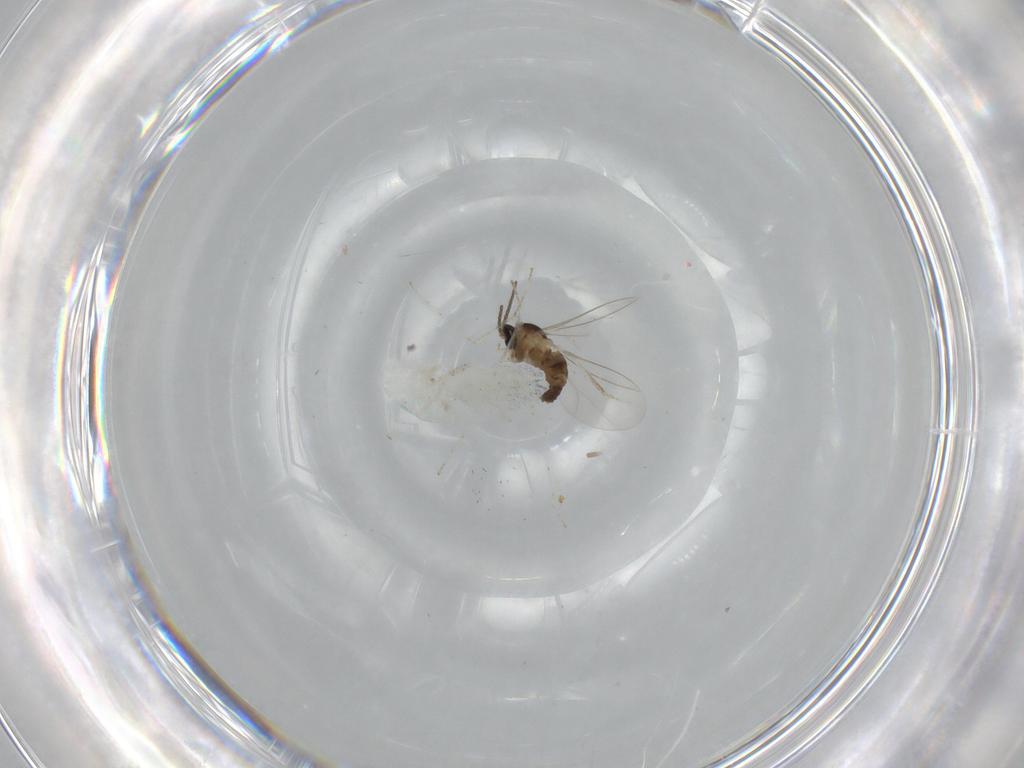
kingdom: Animalia
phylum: Arthropoda
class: Insecta
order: Diptera
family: Cecidomyiidae
